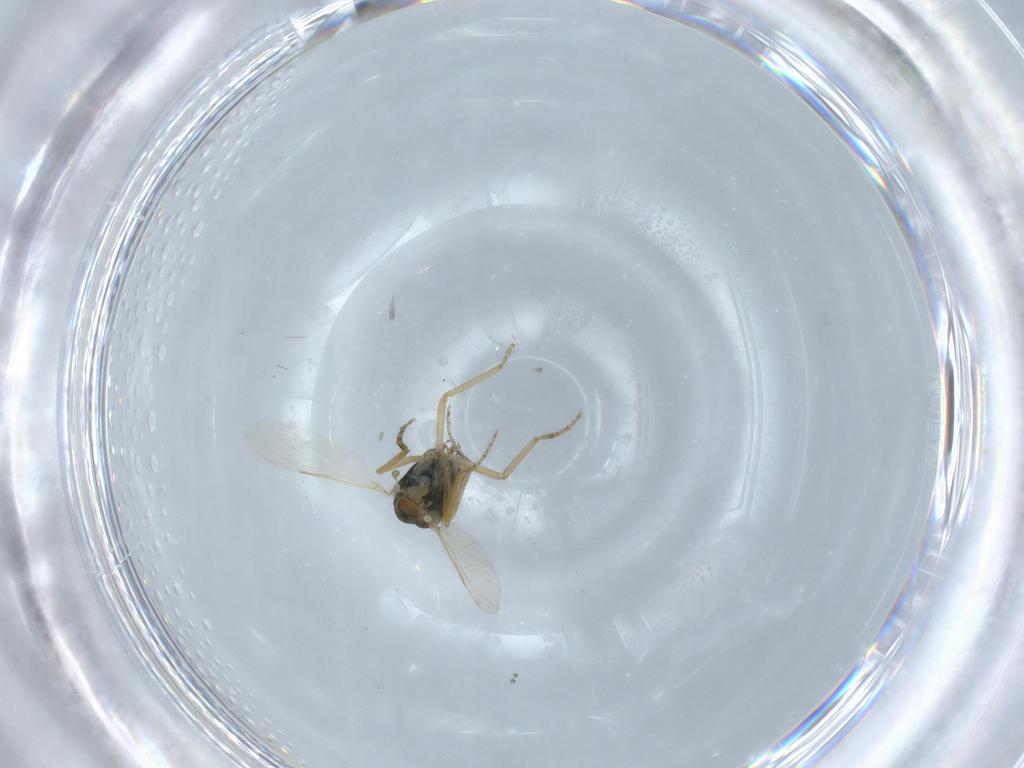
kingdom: Animalia
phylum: Arthropoda
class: Insecta
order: Diptera
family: Ceratopogonidae
